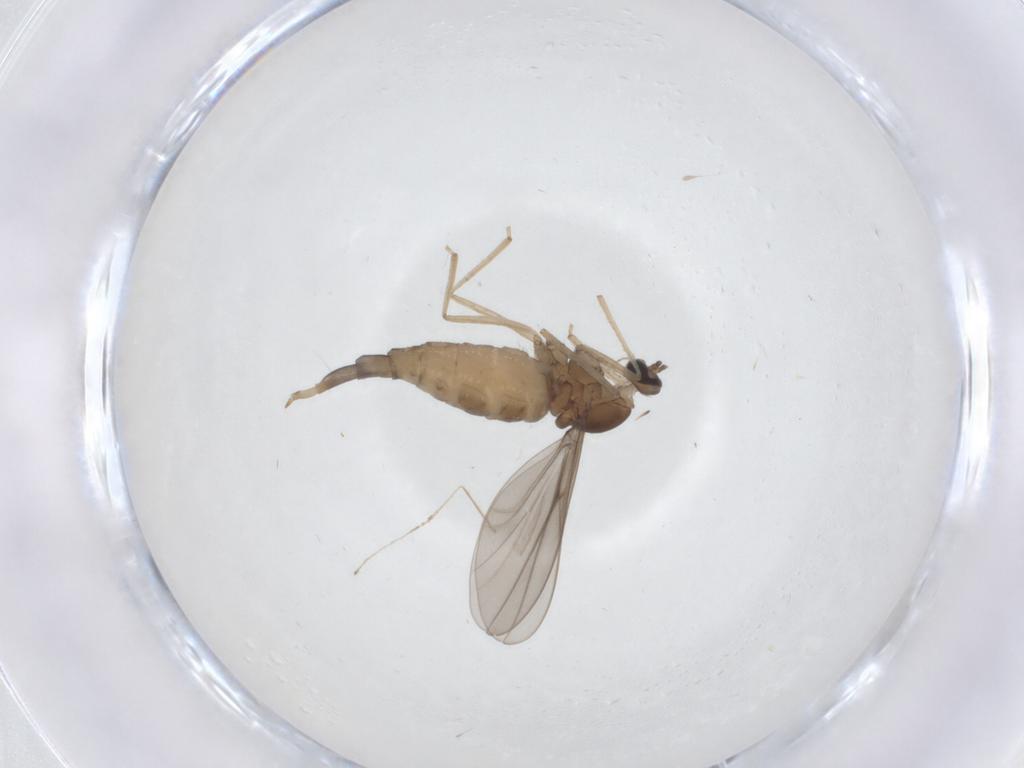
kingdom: Animalia
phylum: Arthropoda
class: Insecta
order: Diptera
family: Cecidomyiidae
